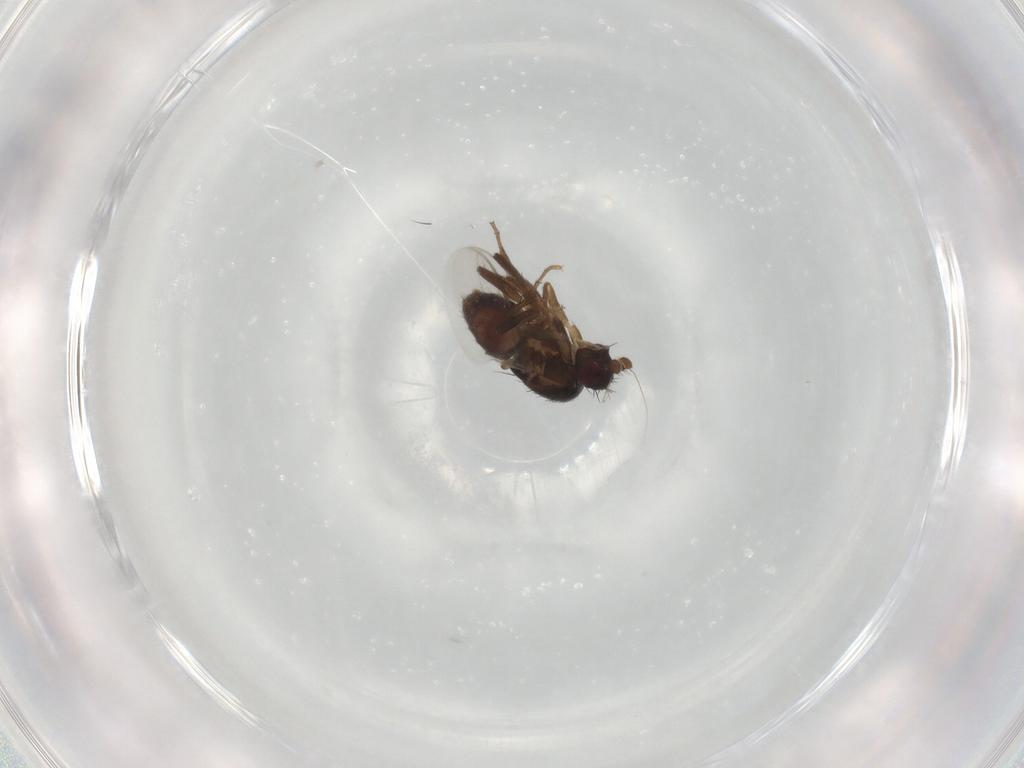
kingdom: Animalia
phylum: Arthropoda
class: Insecta
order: Diptera
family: Sphaeroceridae
